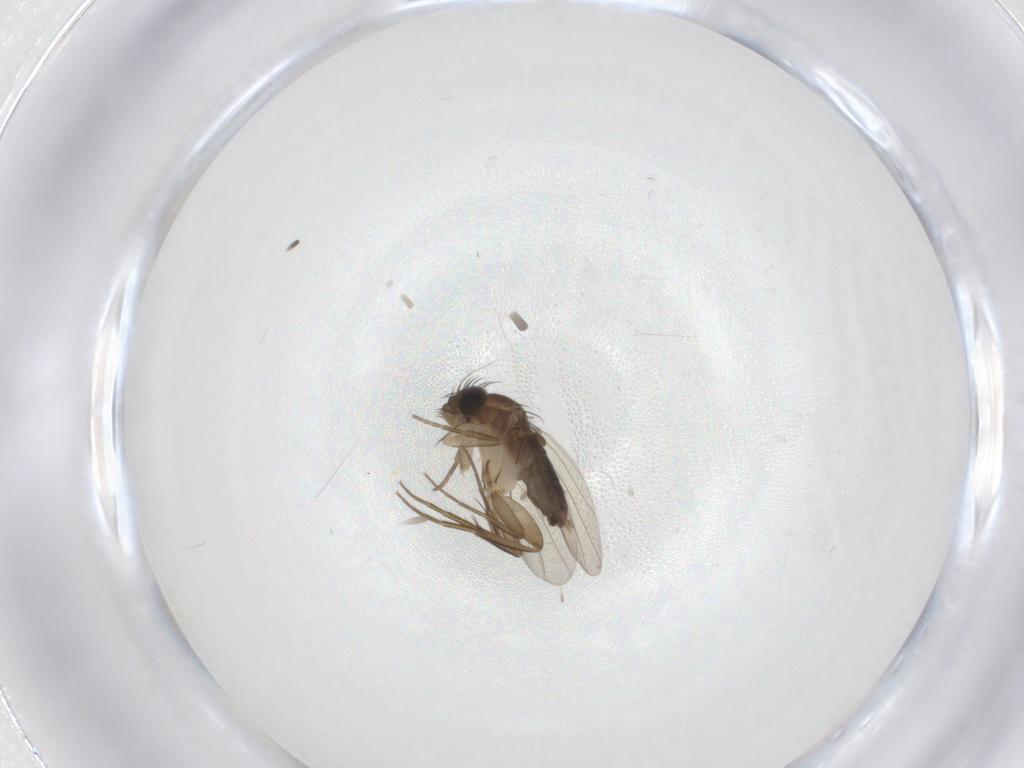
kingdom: Animalia
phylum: Arthropoda
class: Insecta
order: Diptera
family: Phoridae
